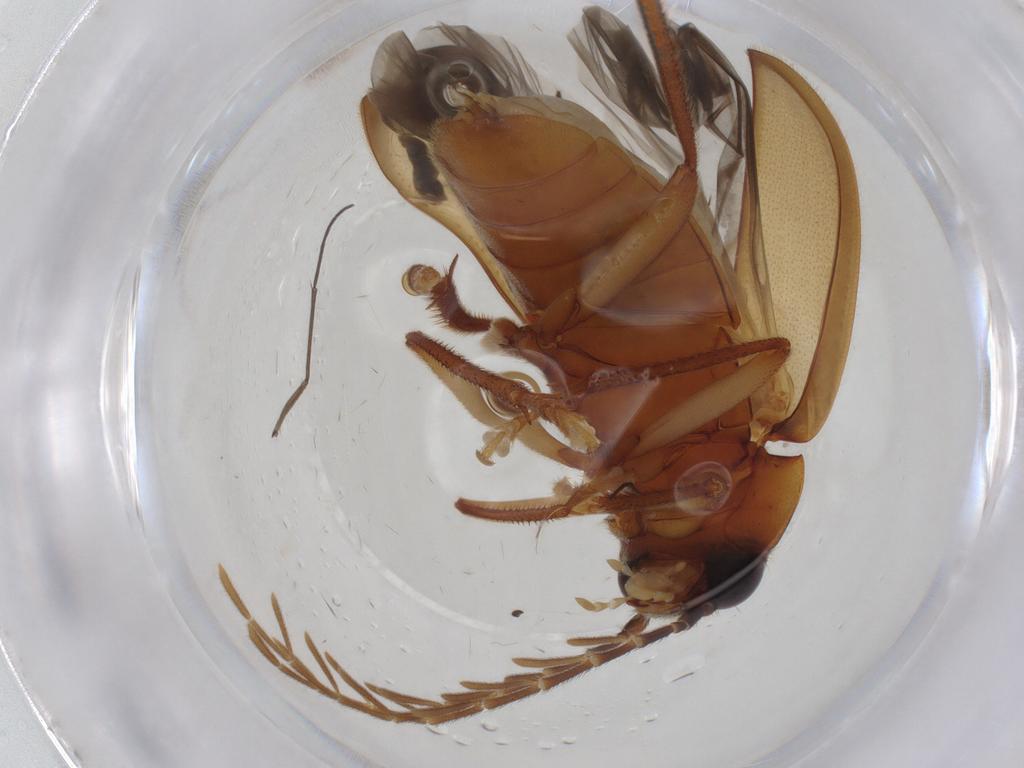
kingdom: Animalia
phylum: Arthropoda
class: Insecta
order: Coleoptera
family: Ptilodactylidae
